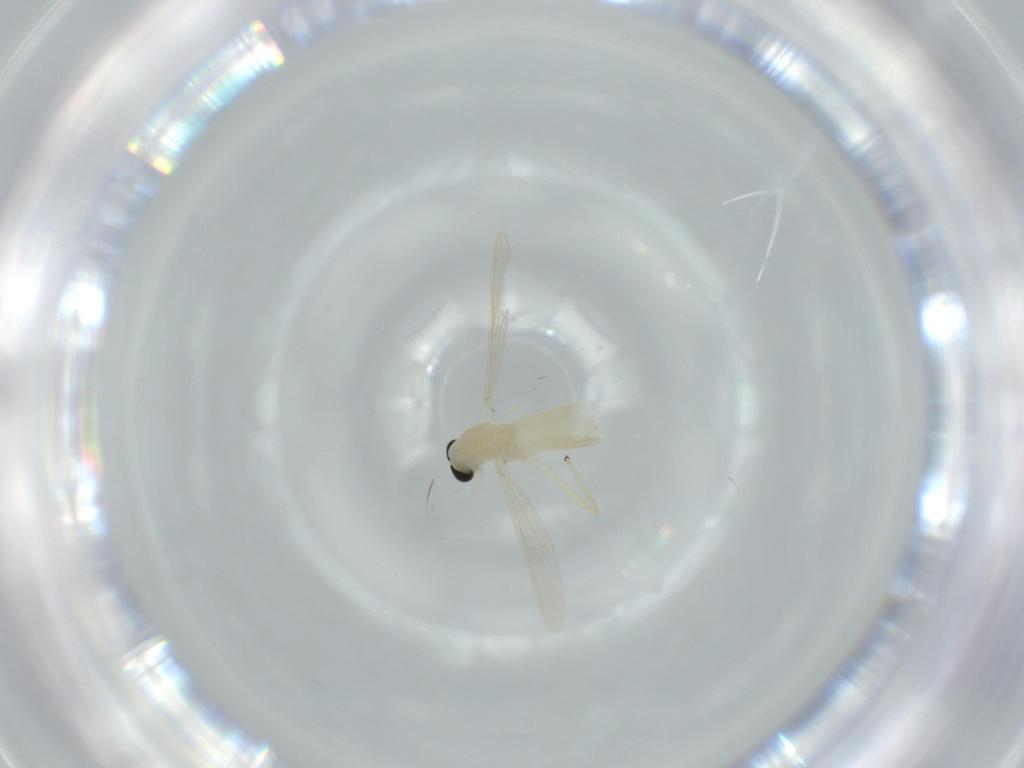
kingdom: Animalia
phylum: Arthropoda
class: Insecta
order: Diptera
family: Chironomidae
